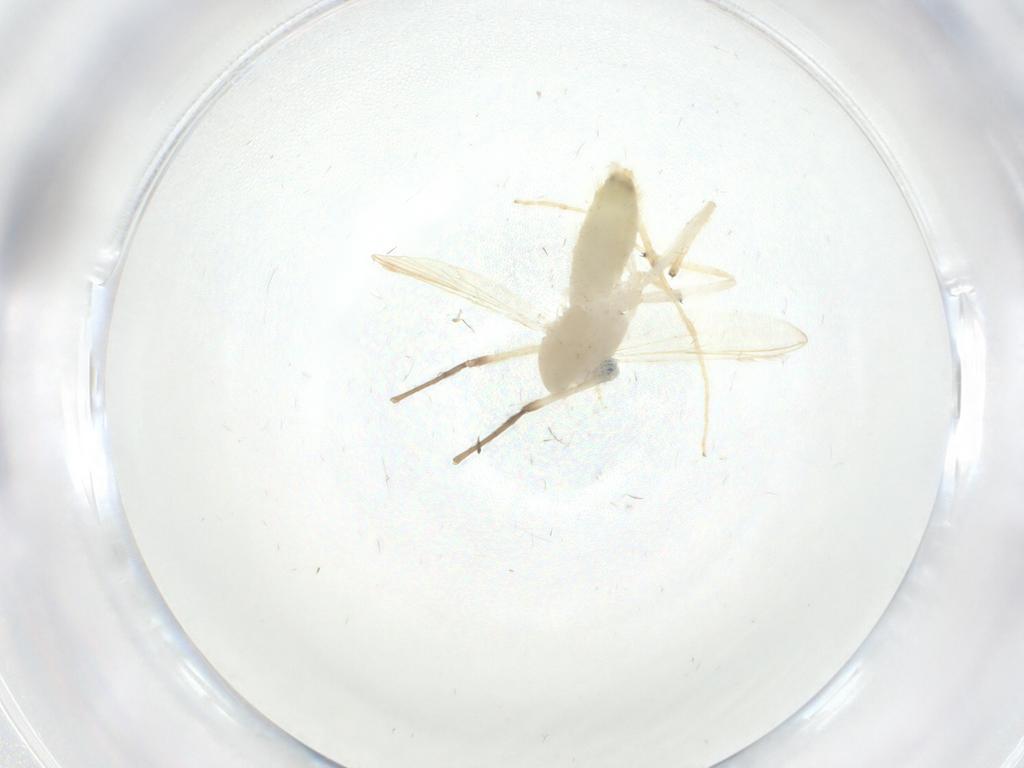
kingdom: Animalia
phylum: Arthropoda
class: Insecta
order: Diptera
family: Chironomidae
